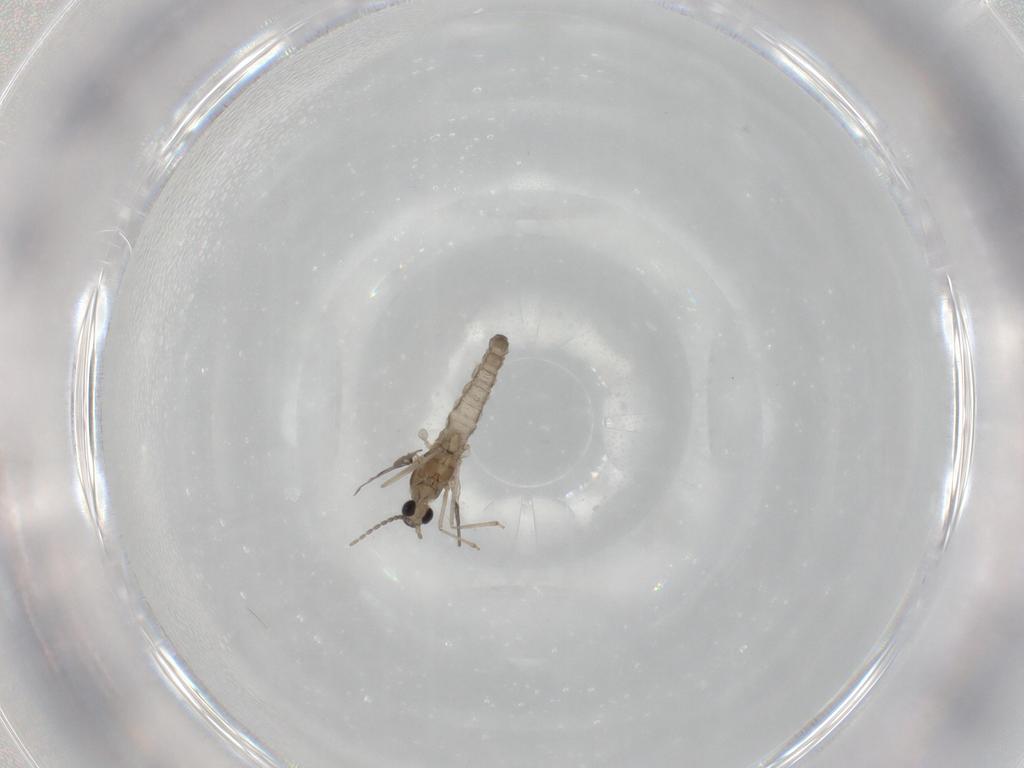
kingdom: Animalia
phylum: Arthropoda
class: Insecta
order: Diptera
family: Cecidomyiidae
